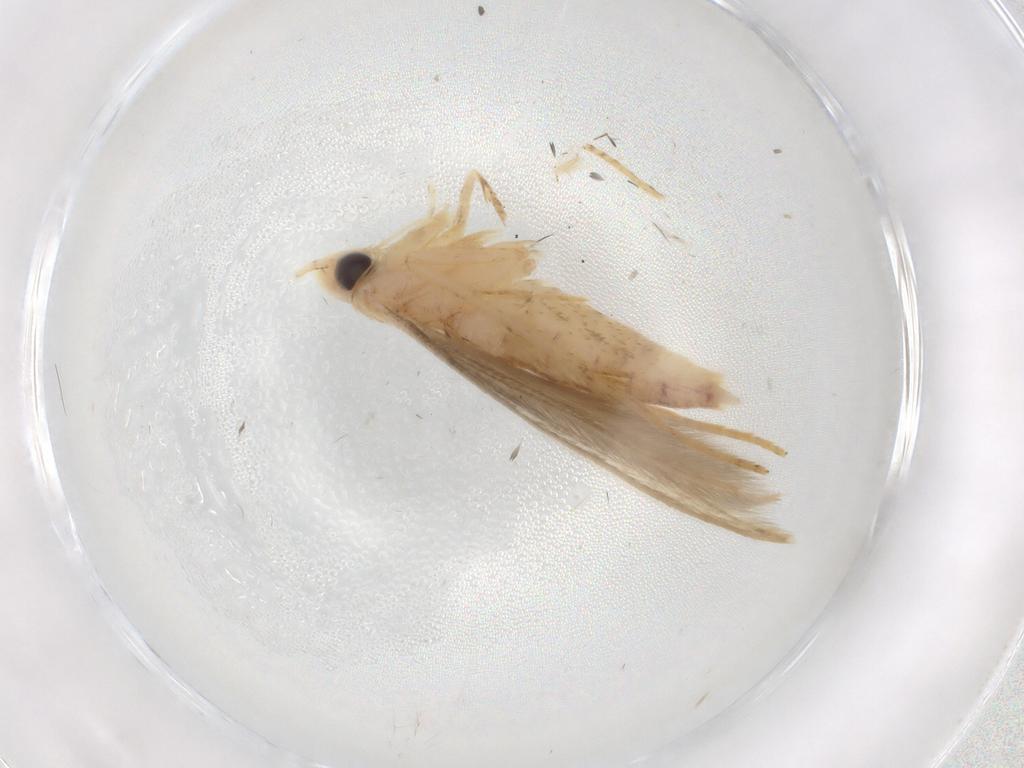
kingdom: Animalia
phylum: Arthropoda
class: Insecta
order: Lepidoptera
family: Batrachedridae
